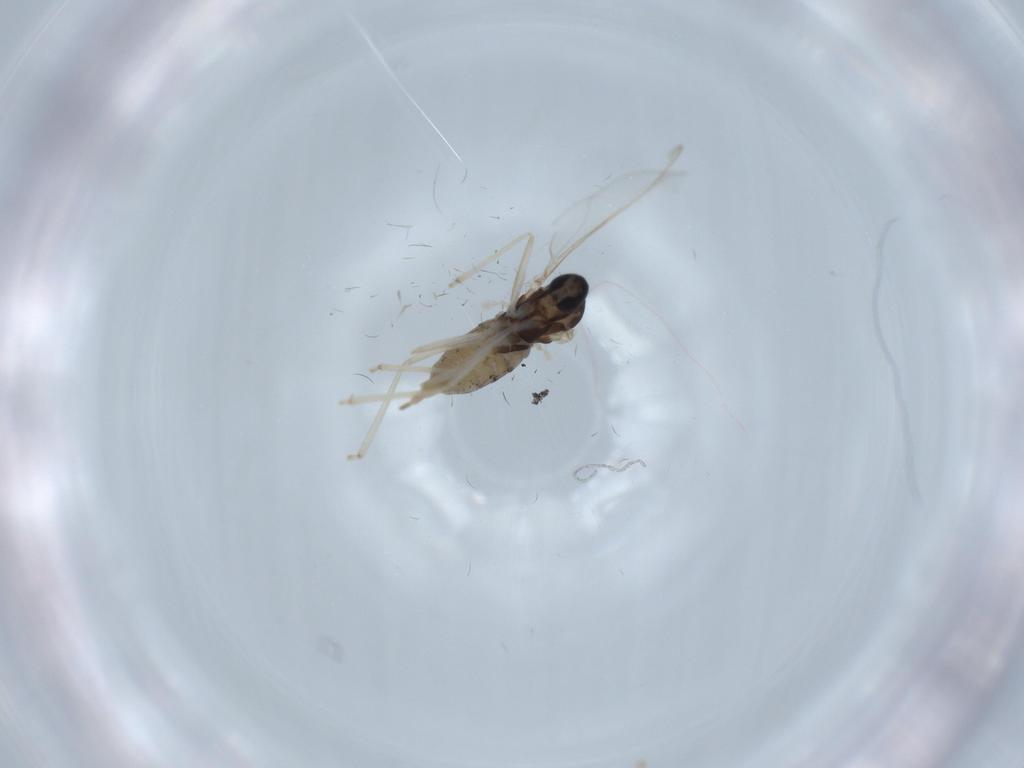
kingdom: Animalia
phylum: Arthropoda
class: Insecta
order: Diptera
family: Cecidomyiidae
